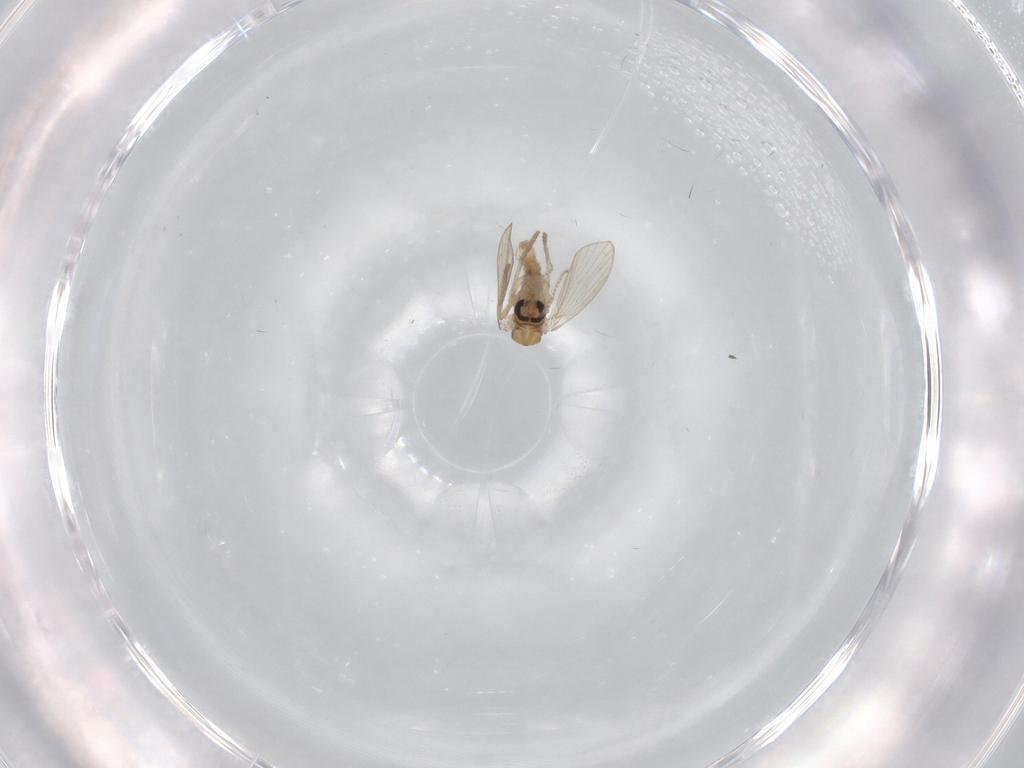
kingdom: Animalia
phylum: Arthropoda
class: Insecta
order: Diptera
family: Psychodidae
